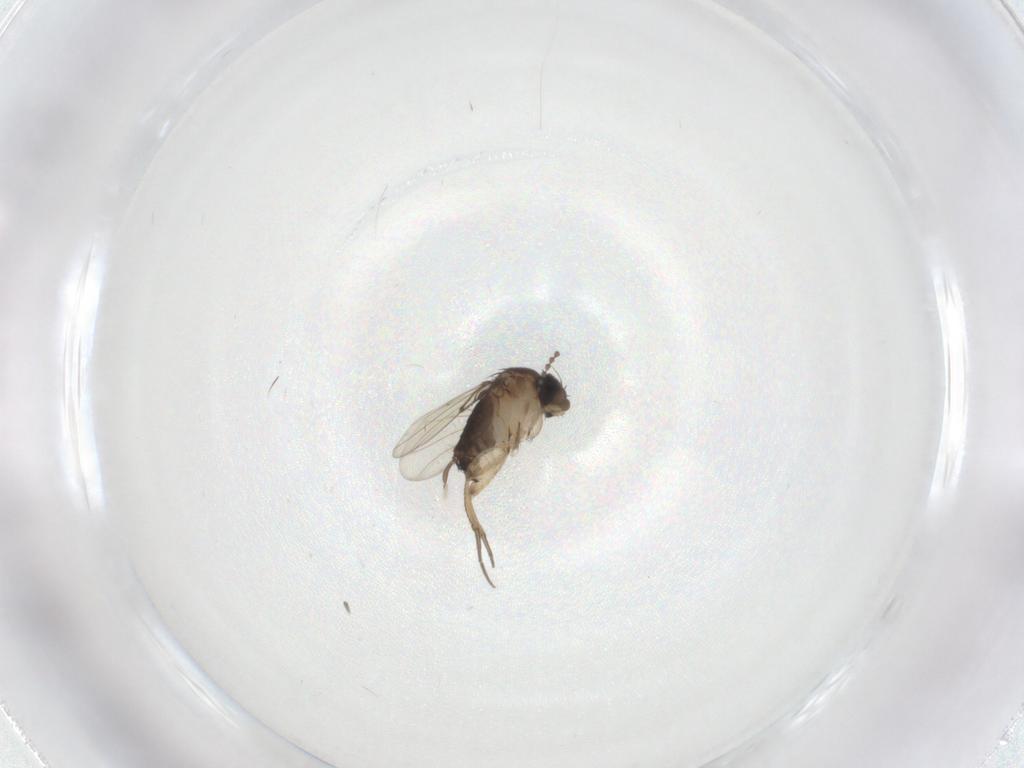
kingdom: Animalia
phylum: Arthropoda
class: Insecta
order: Diptera
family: Cecidomyiidae
